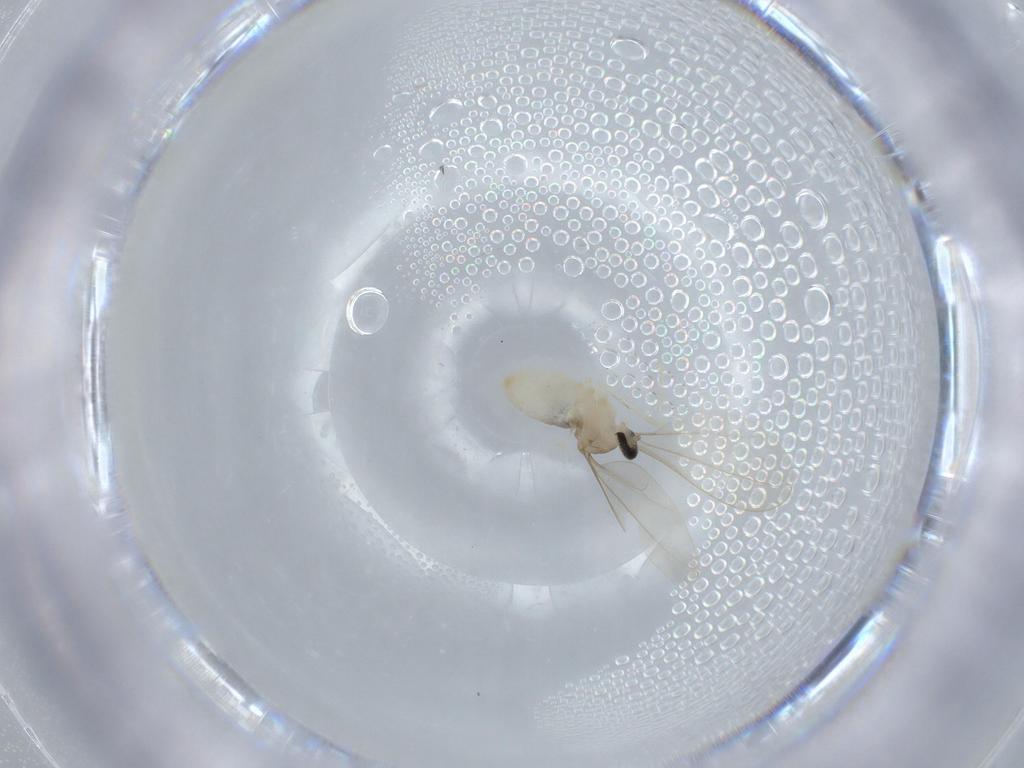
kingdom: Animalia
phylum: Arthropoda
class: Insecta
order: Diptera
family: Cecidomyiidae
